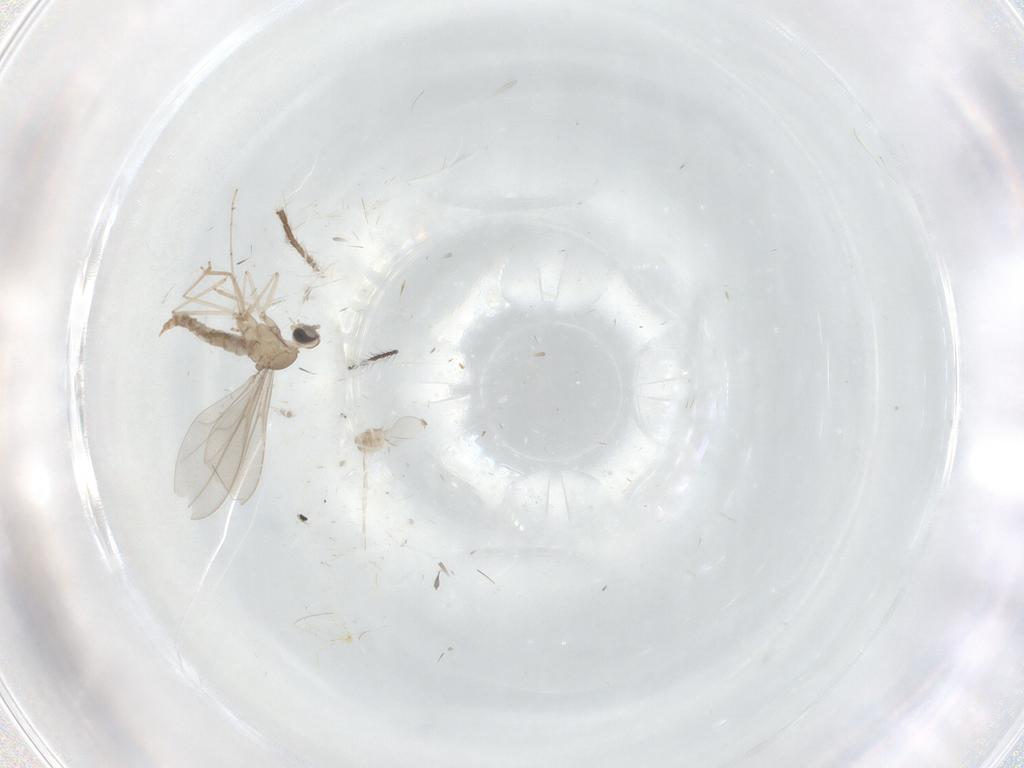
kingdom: Animalia
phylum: Arthropoda
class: Insecta
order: Diptera
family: Limoniidae
